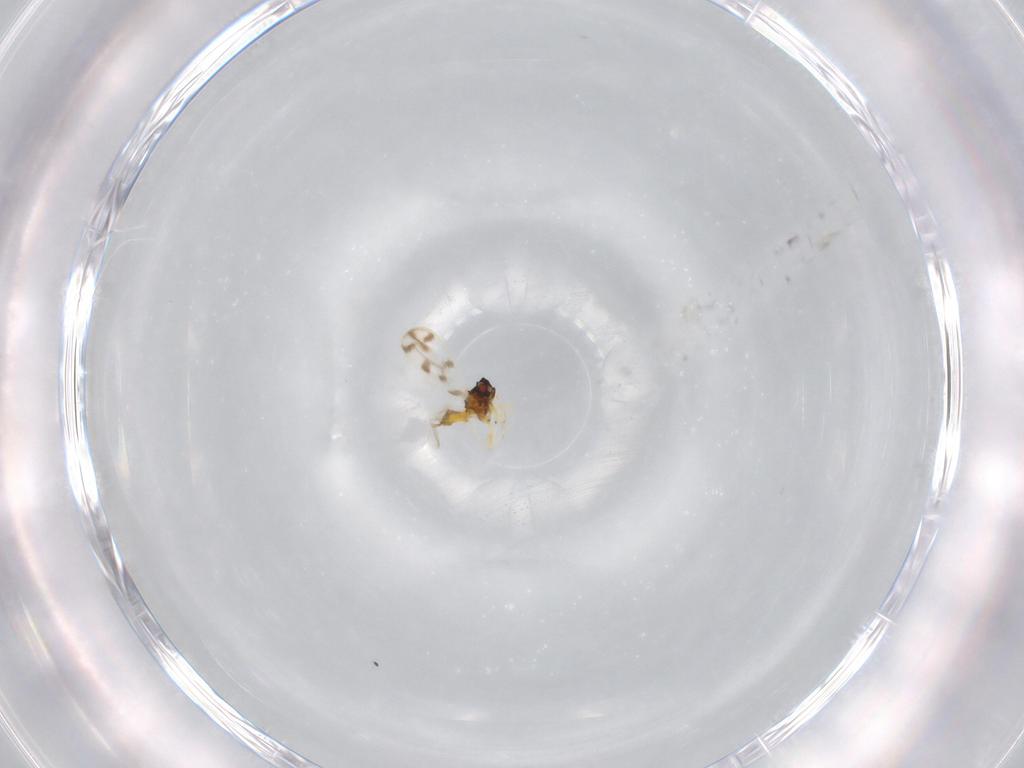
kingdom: Animalia
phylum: Arthropoda
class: Insecta
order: Hemiptera
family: Aleyrodidae
